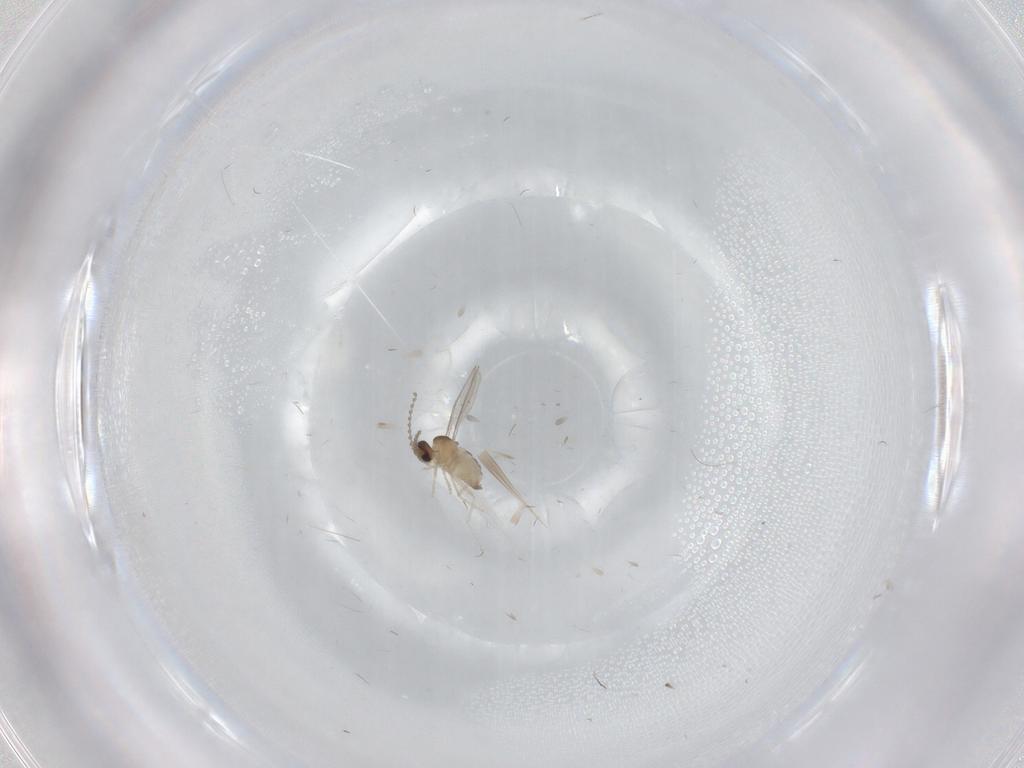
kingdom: Animalia
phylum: Arthropoda
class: Insecta
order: Diptera
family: Cecidomyiidae
